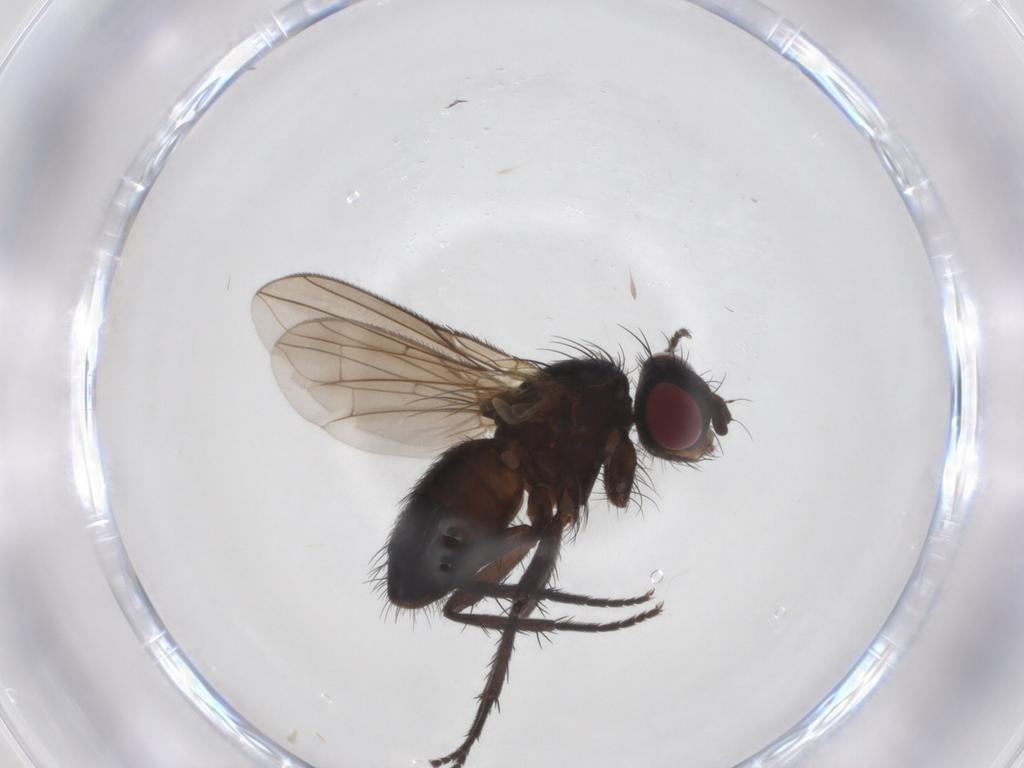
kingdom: Animalia
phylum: Arthropoda
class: Insecta
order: Diptera
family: Calliphoridae
